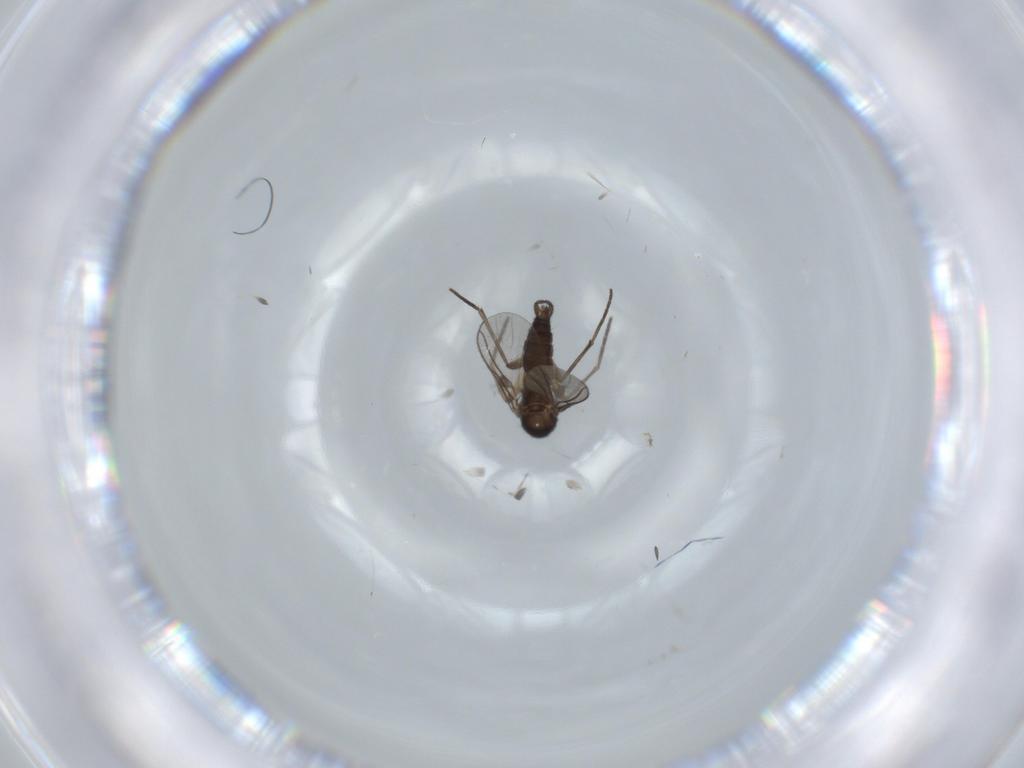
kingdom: Animalia
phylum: Arthropoda
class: Insecta
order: Diptera
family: Sciaridae
